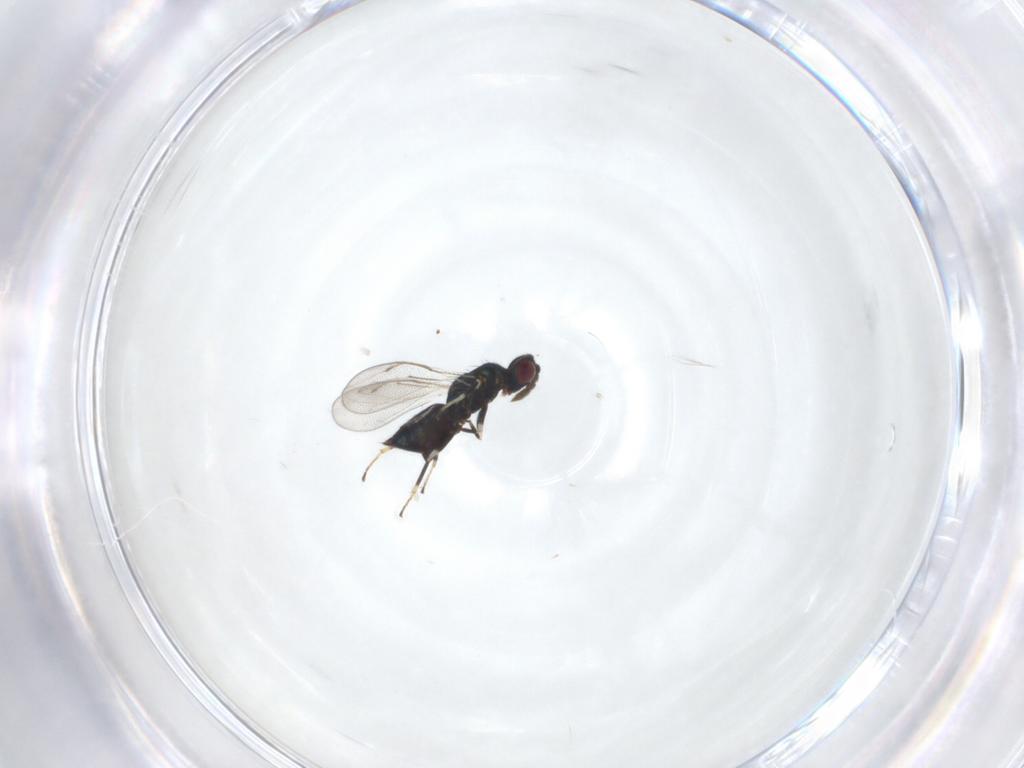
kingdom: Animalia
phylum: Arthropoda
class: Insecta
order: Hymenoptera
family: Eulophidae
